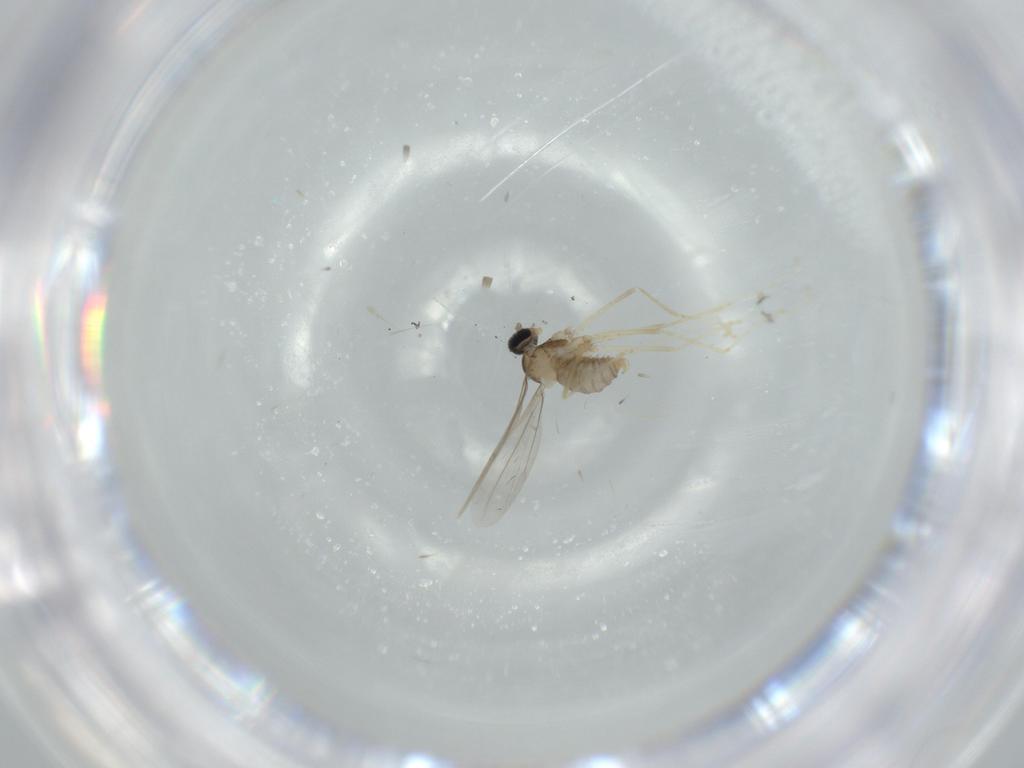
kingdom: Animalia
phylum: Arthropoda
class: Insecta
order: Diptera
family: Cecidomyiidae
